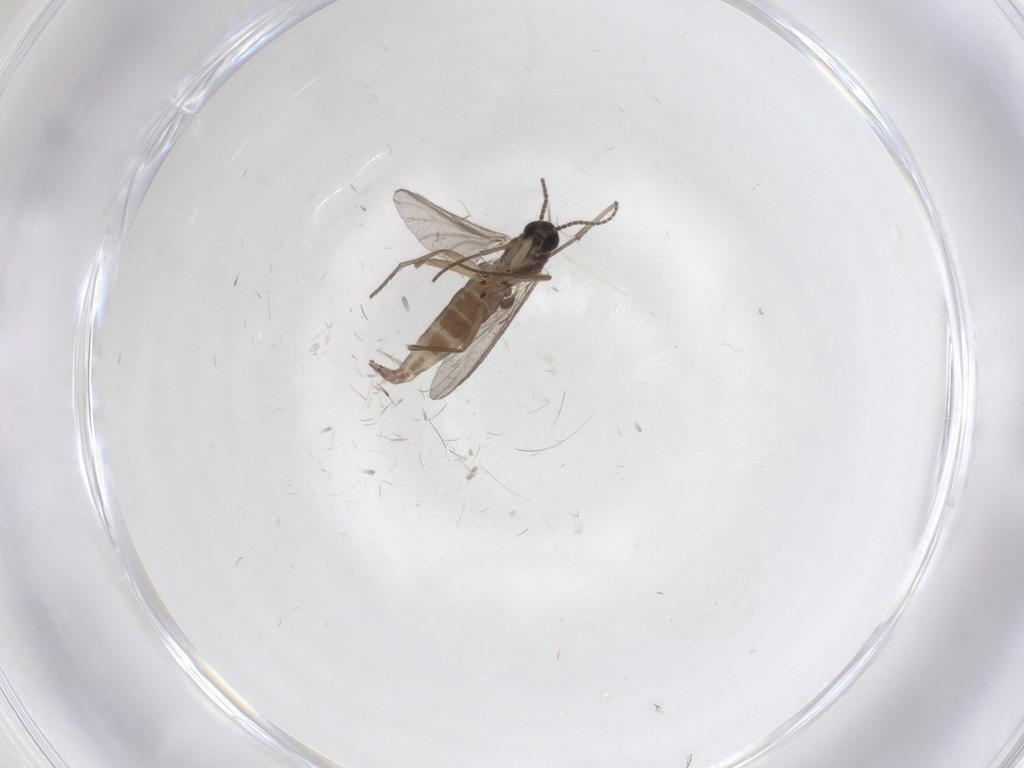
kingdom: Animalia
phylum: Arthropoda
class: Insecta
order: Diptera
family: Sciaridae
